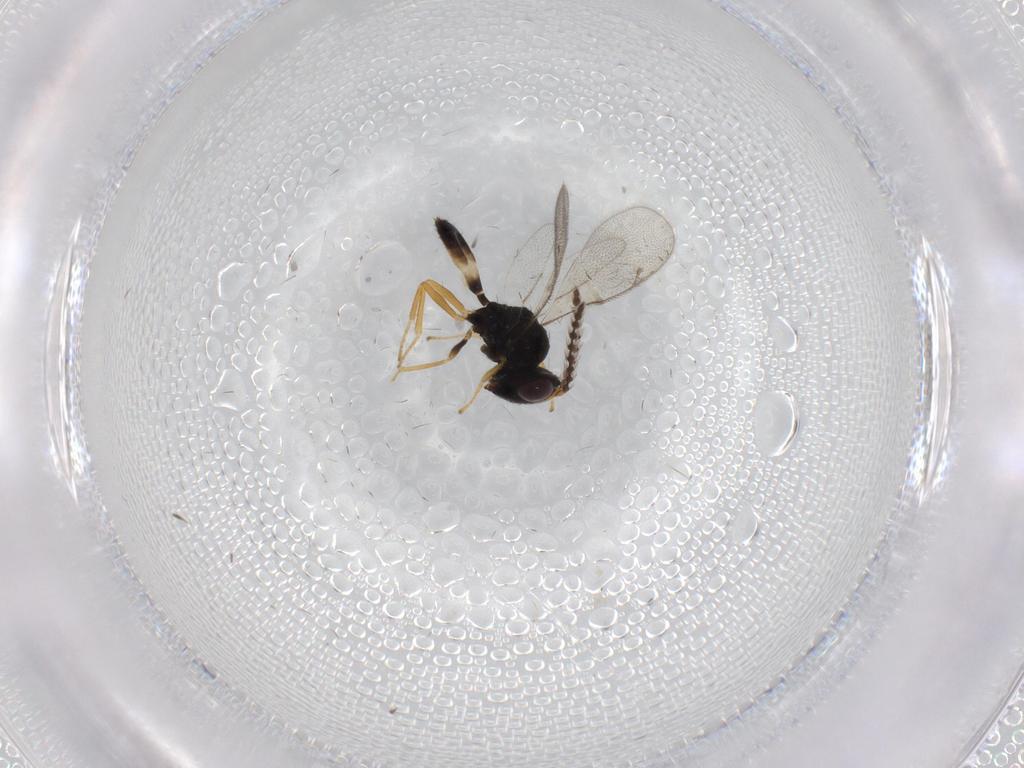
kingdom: Animalia
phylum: Arthropoda
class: Insecta
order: Hymenoptera
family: Pteromalidae
